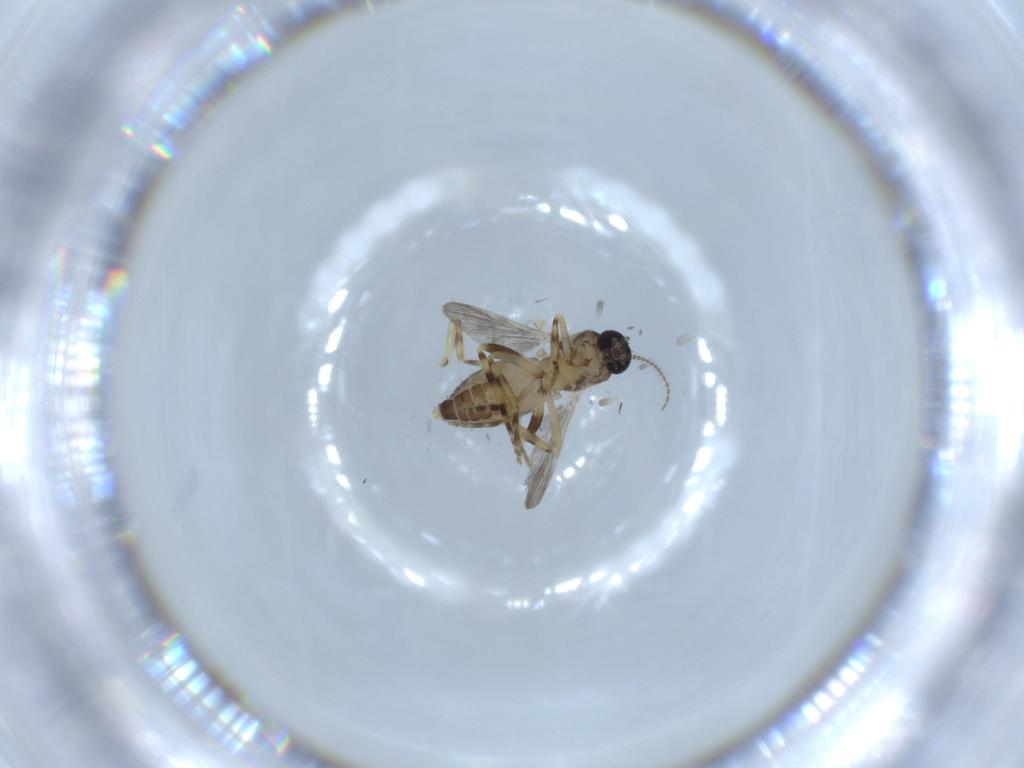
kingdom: Animalia
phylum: Arthropoda
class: Insecta
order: Diptera
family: Ceratopogonidae
